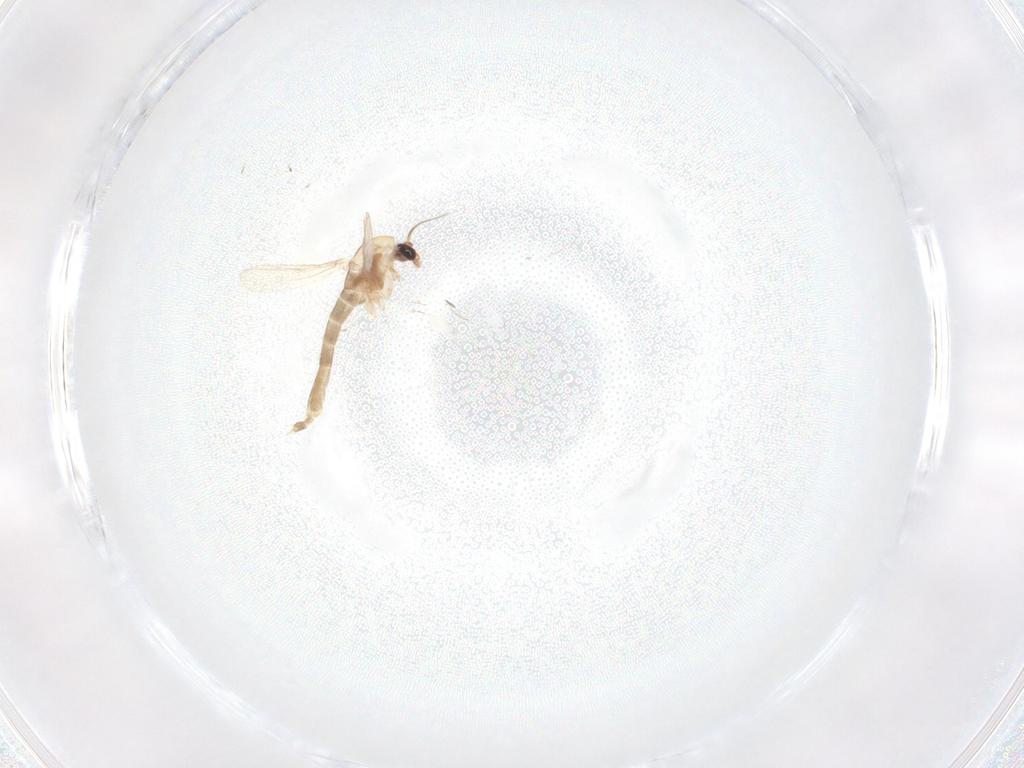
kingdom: Animalia
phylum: Arthropoda
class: Insecta
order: Diptera
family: Cecidomyiidae
